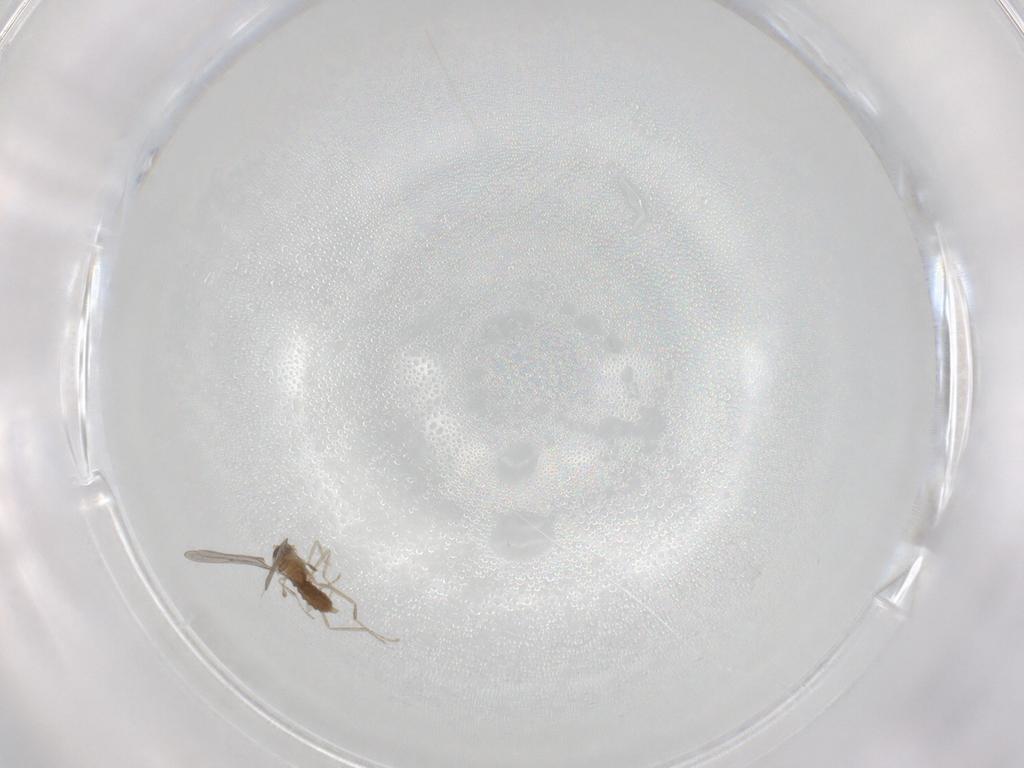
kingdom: Animalia
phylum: Arthropoda
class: Insecta
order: Diptera
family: Cecidomyiidae
